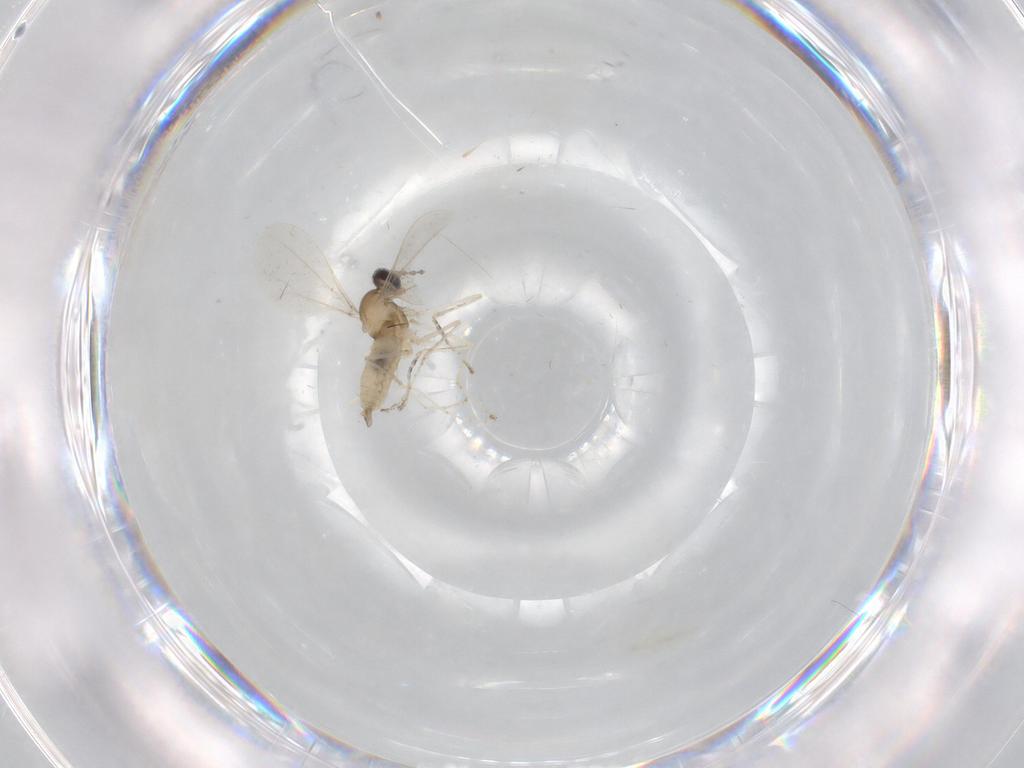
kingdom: Animalia
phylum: Arthropoda
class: Insecta
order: Diptera
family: Cecidomyiidae
